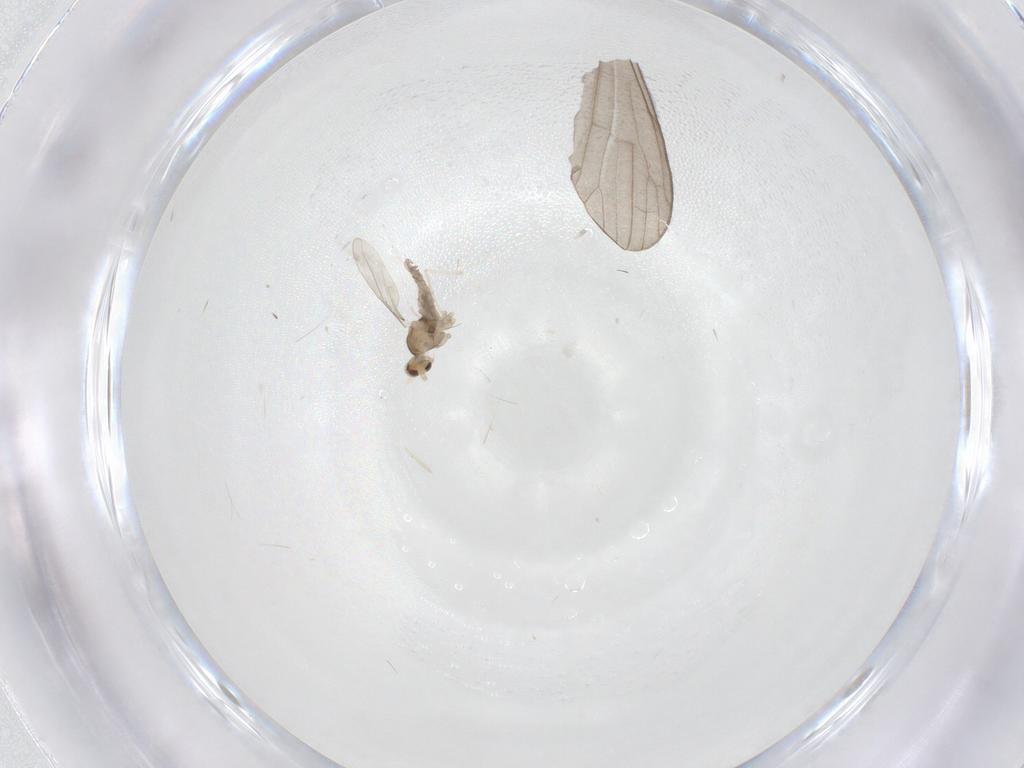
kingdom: Animalia
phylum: Arthropoda
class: Insecta
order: Diptera
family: Cecidomyiidae
